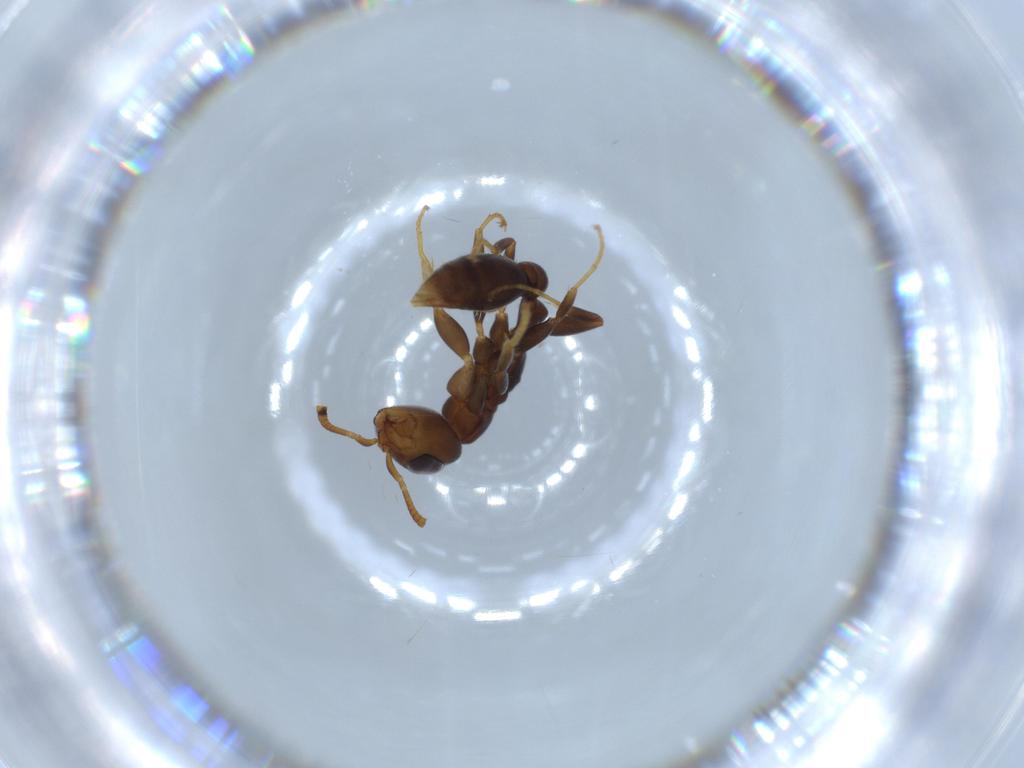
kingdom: Animalia
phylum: Arthropoda
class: Insecta
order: Hymenoptera
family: Formicidae
